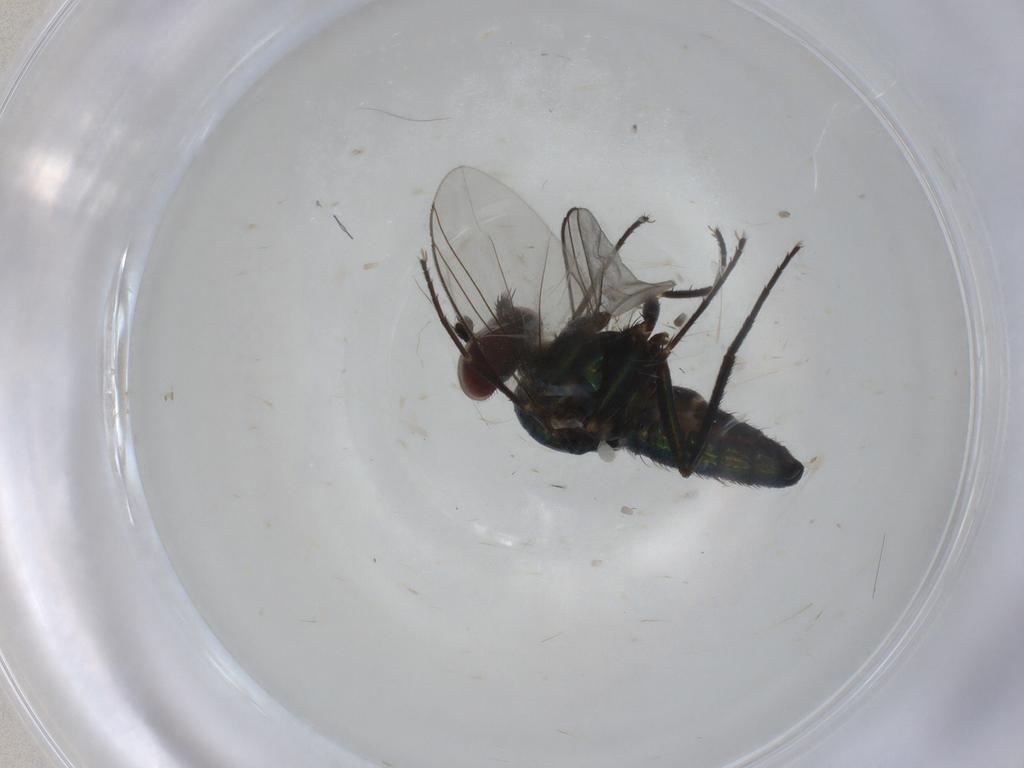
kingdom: Animalia
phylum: Arthropoda
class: Insecta
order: Diptera
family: Dolichopodidae
